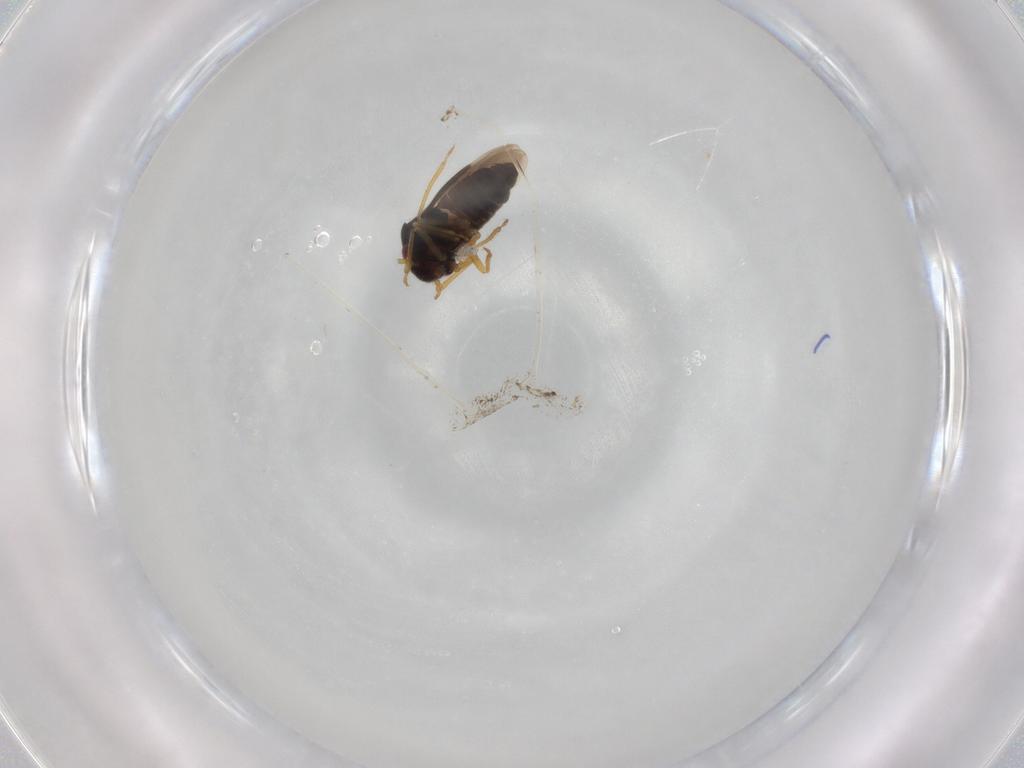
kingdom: Animalia
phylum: Arthropoda
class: Insecta
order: Hemiptera
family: Schizopteridae
